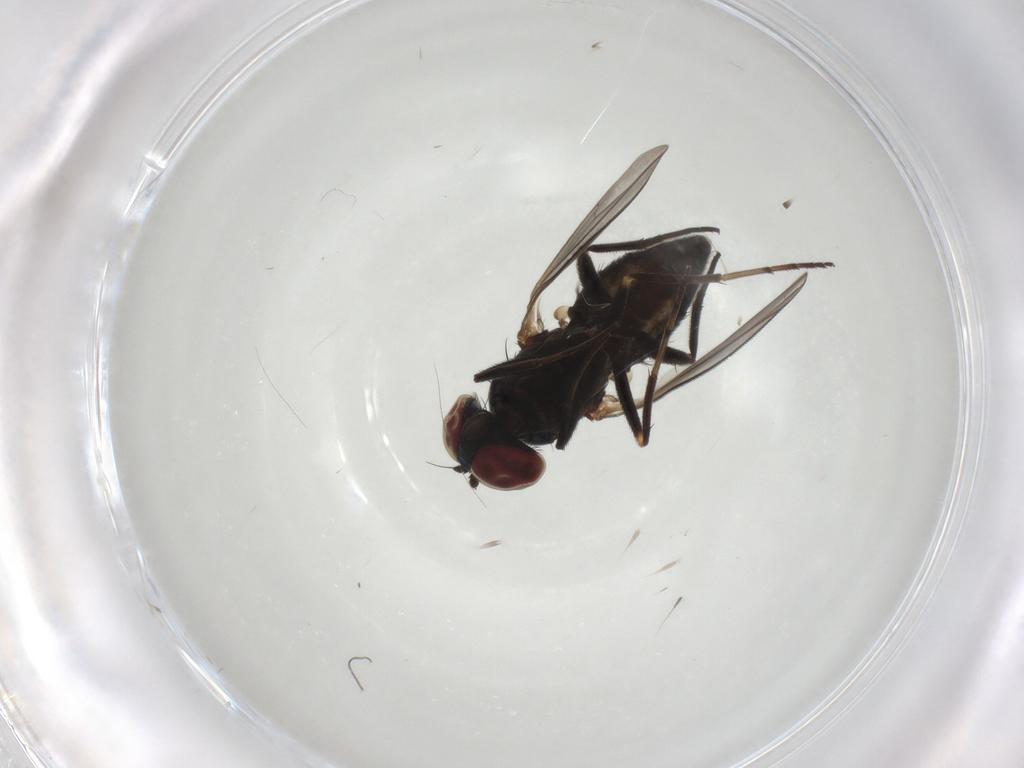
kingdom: Animalia
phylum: Arthropoda
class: Insecta
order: Diptera
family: Dolichopodidae
